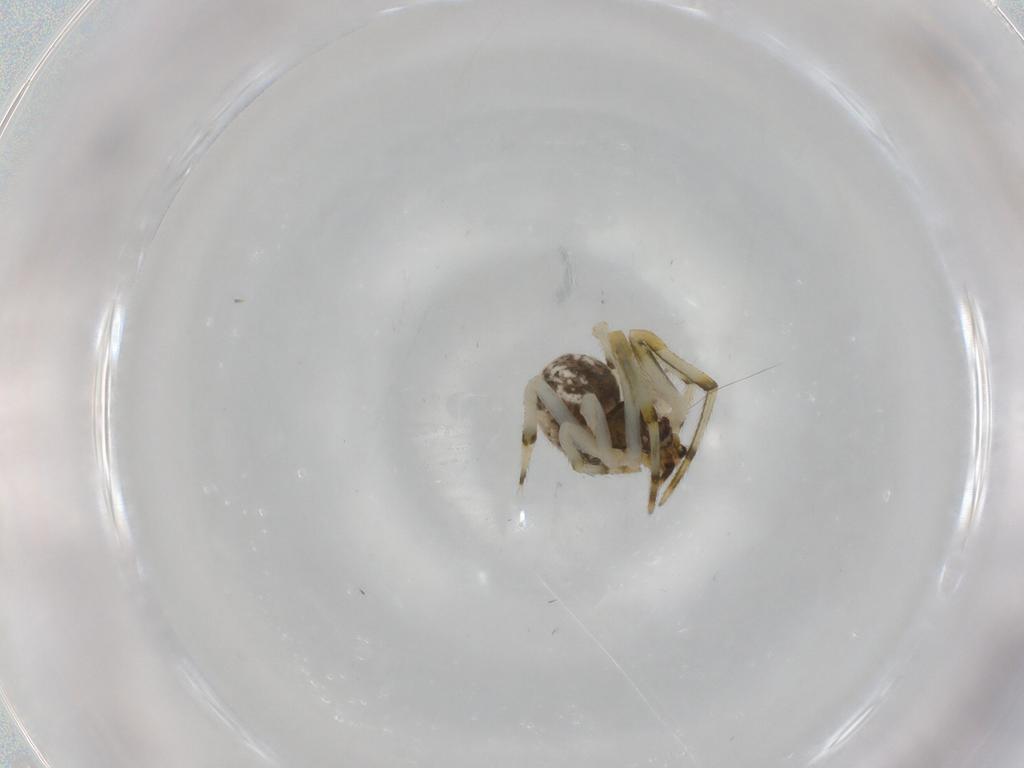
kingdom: Animalia
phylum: Arthropoda
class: Arachnida
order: Araneae
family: Theridiidae
